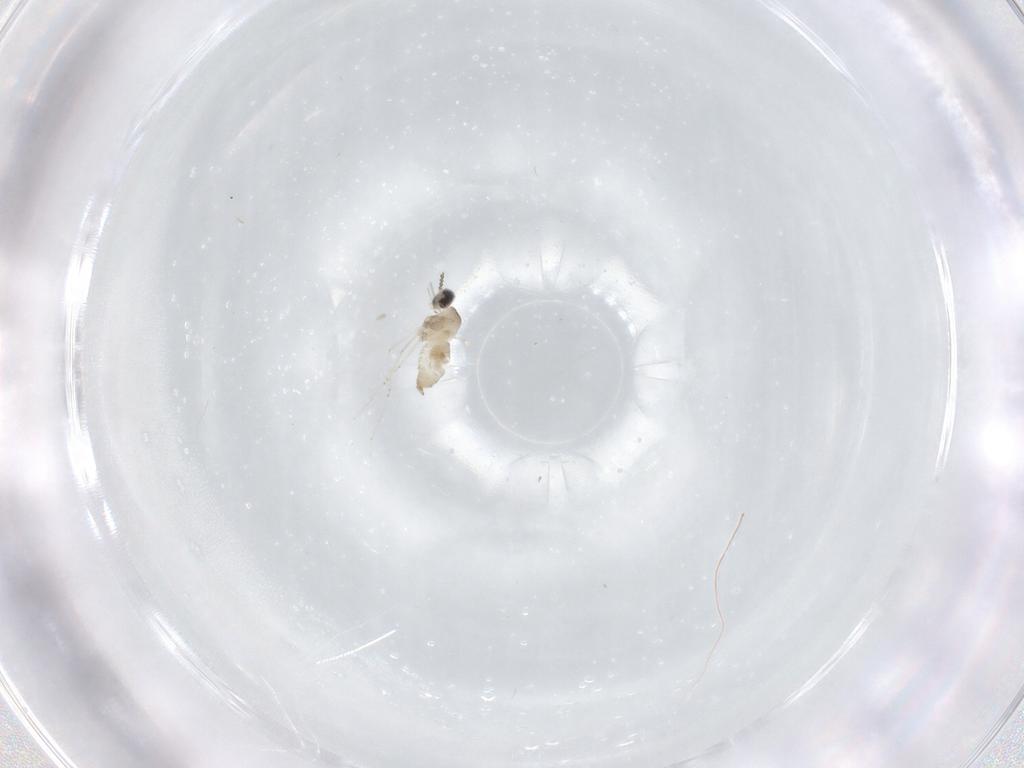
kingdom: Animalia
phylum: Arthropoda
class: Insecta
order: Diptera
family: Cecidomyiidae
